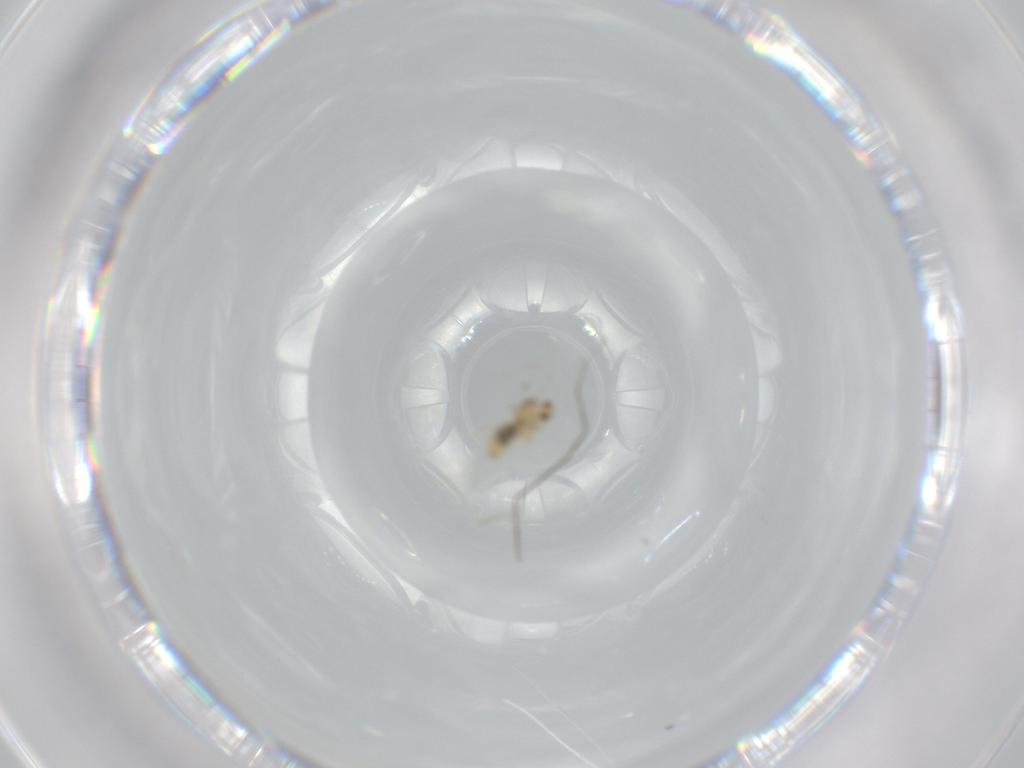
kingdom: Animalia
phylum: Arthropoda
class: Insecta
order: Diptera
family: Cecidomyiidae
